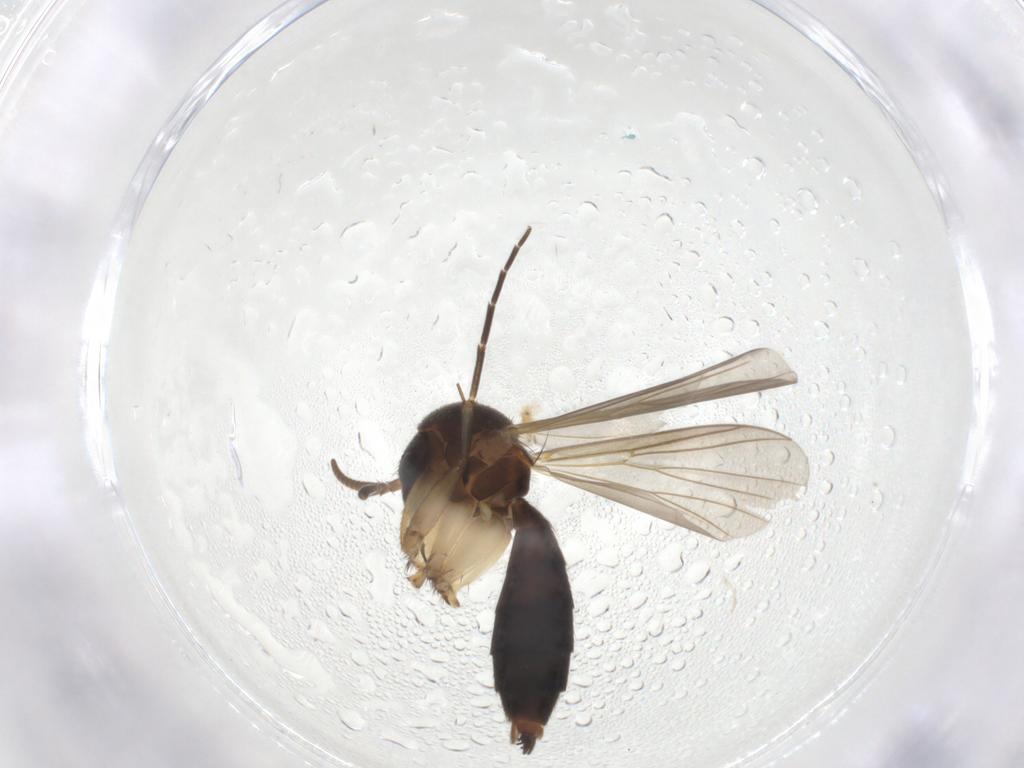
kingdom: Animalia
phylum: Arthropoda
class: Insecta
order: Diptera
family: Mycetophilidae
